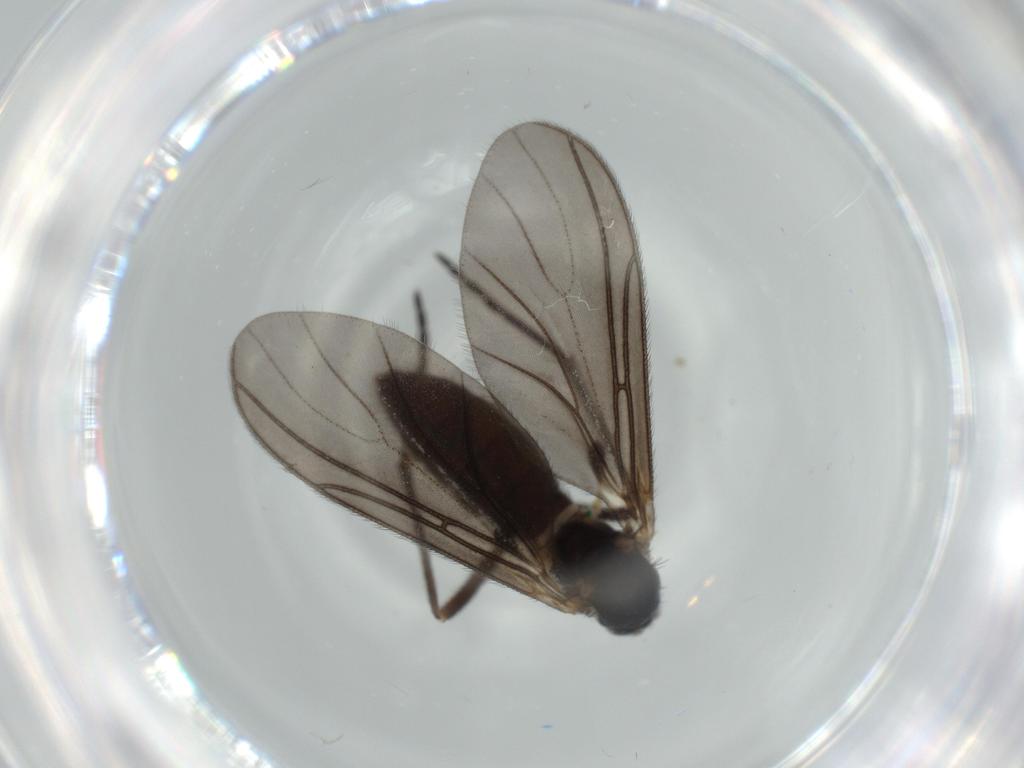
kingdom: Animalia
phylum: Arthropoda
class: Insecta
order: Diptera
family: Sciaridae
